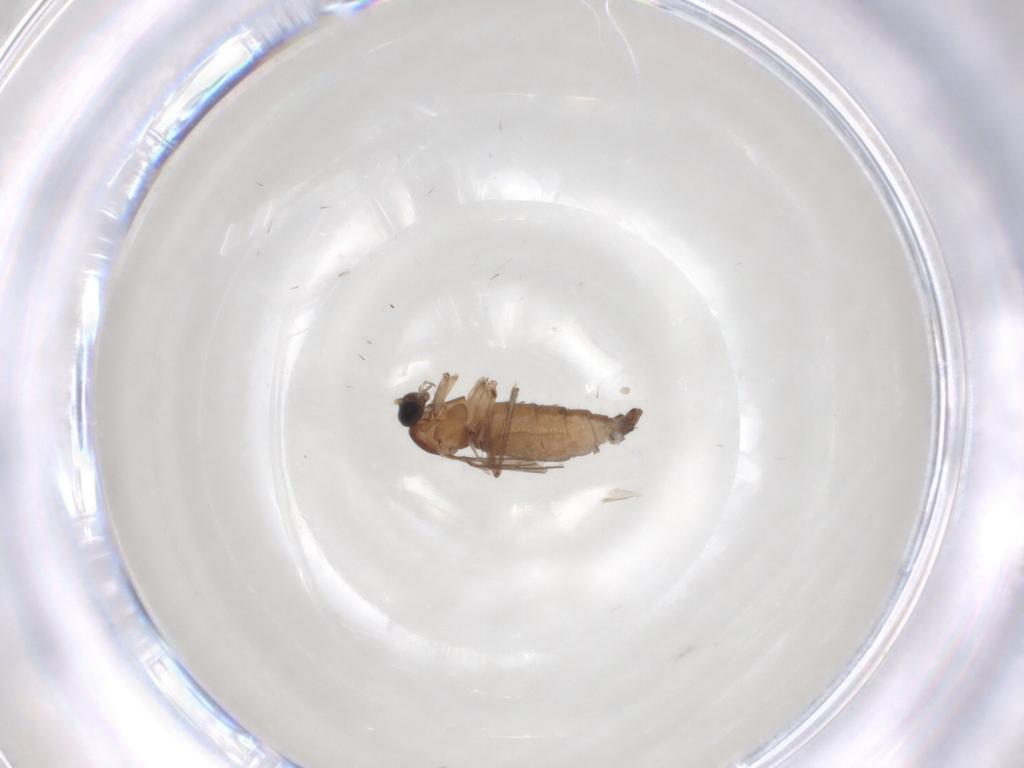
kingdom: Animalia
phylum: Arthropoda
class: Insecta
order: Diptera
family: Sciaridae
